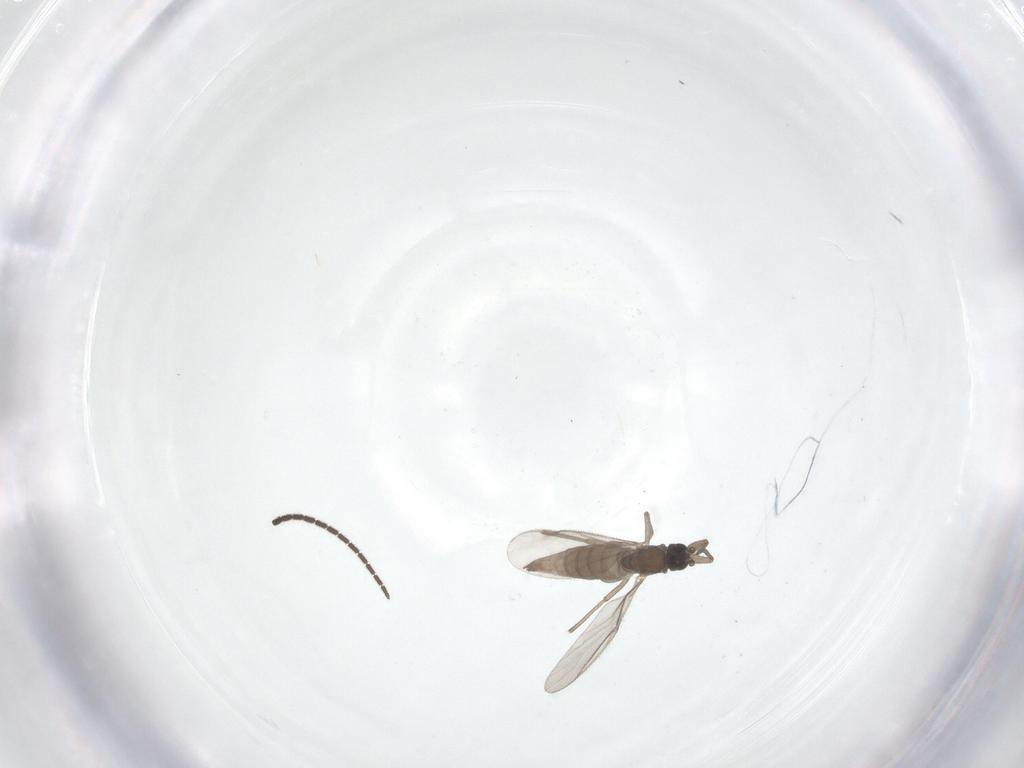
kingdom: Animalia
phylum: Arthropoda
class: Insecta
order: Diptera
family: Sciaridae
